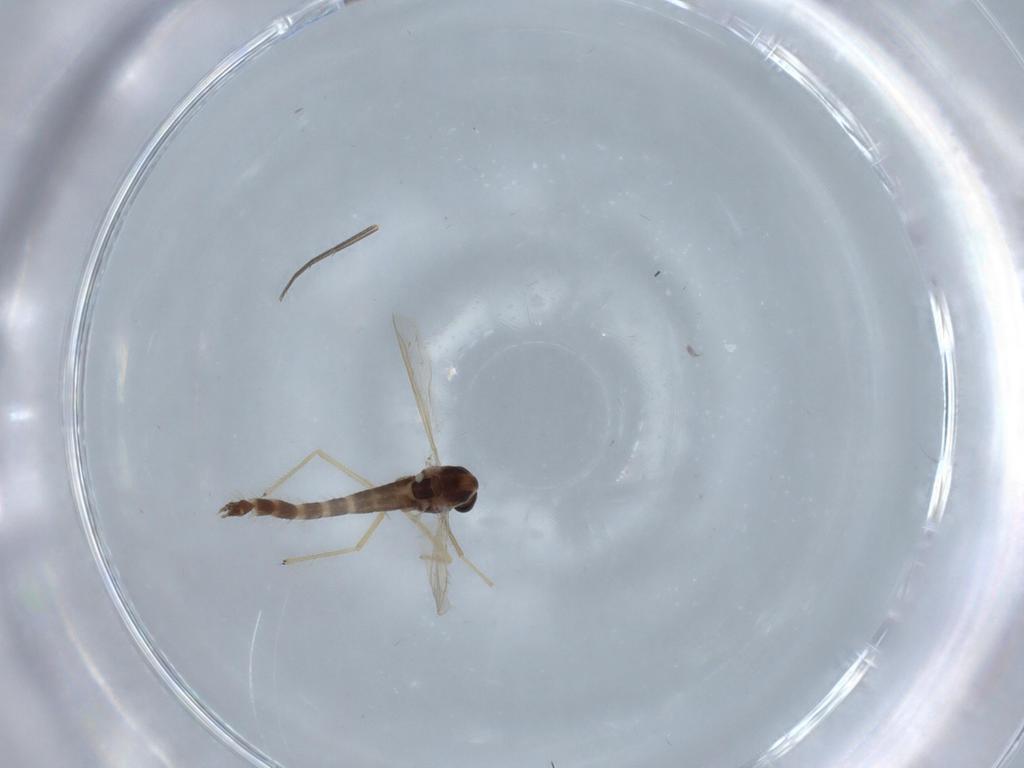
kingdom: Animalia
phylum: Arthropoda
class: Insecta
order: Diptera
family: Chironomidae
